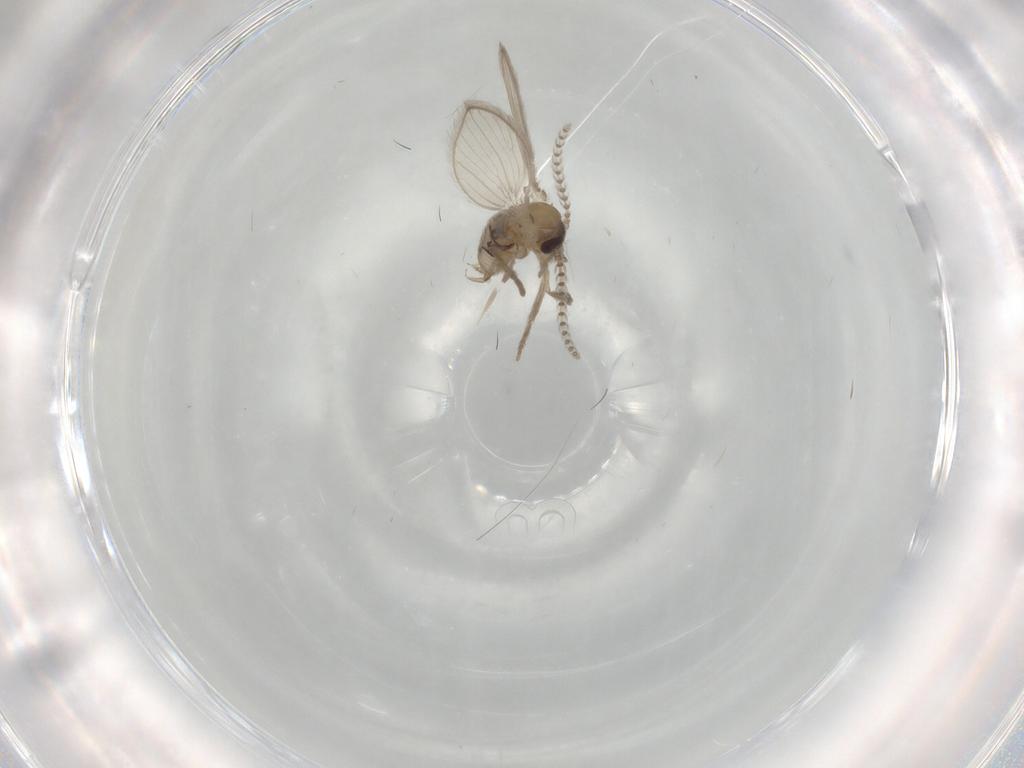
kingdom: Animalia
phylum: Arthropoda
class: Insecta
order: Diptera
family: Psychodidae
